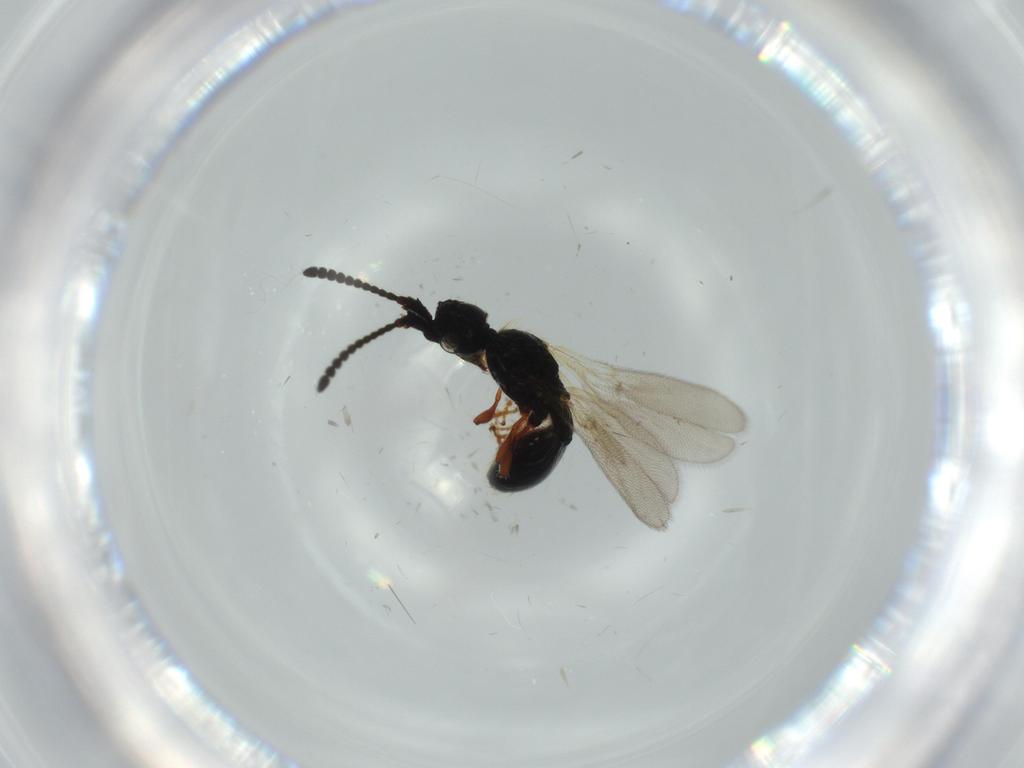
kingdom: Animalia
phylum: Arthropoda
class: Insecta
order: Hymenoptera
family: Diapriidae
